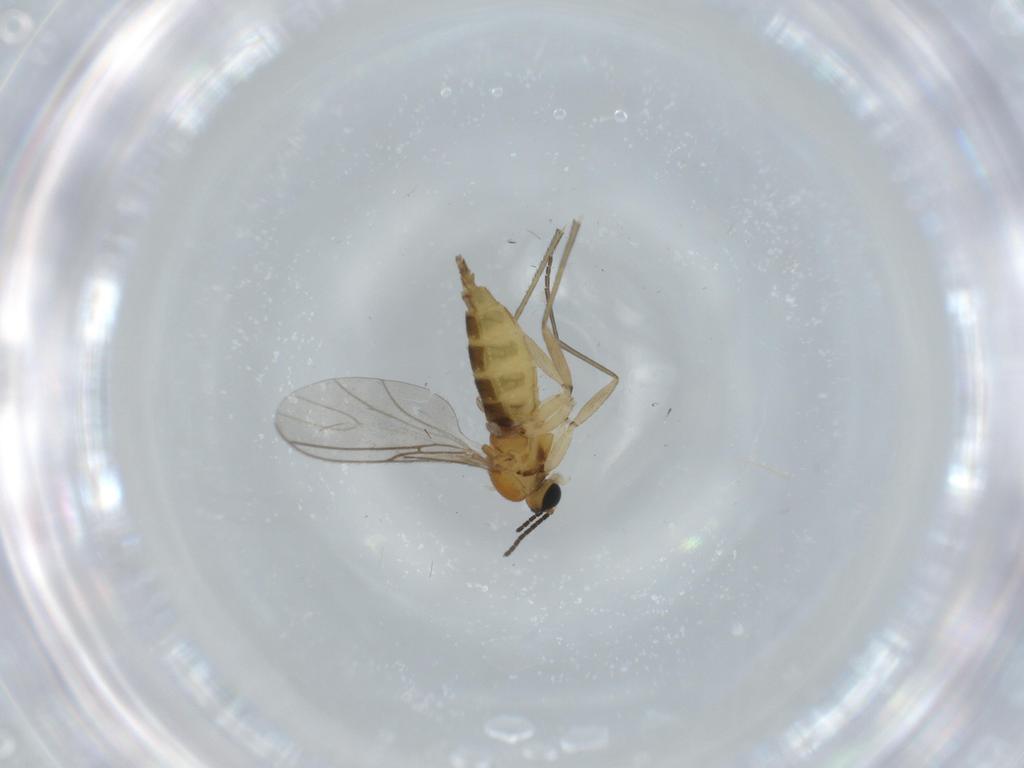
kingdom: Animalia
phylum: Arthropoda
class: Insecta
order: Diptera
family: Sciaridae
